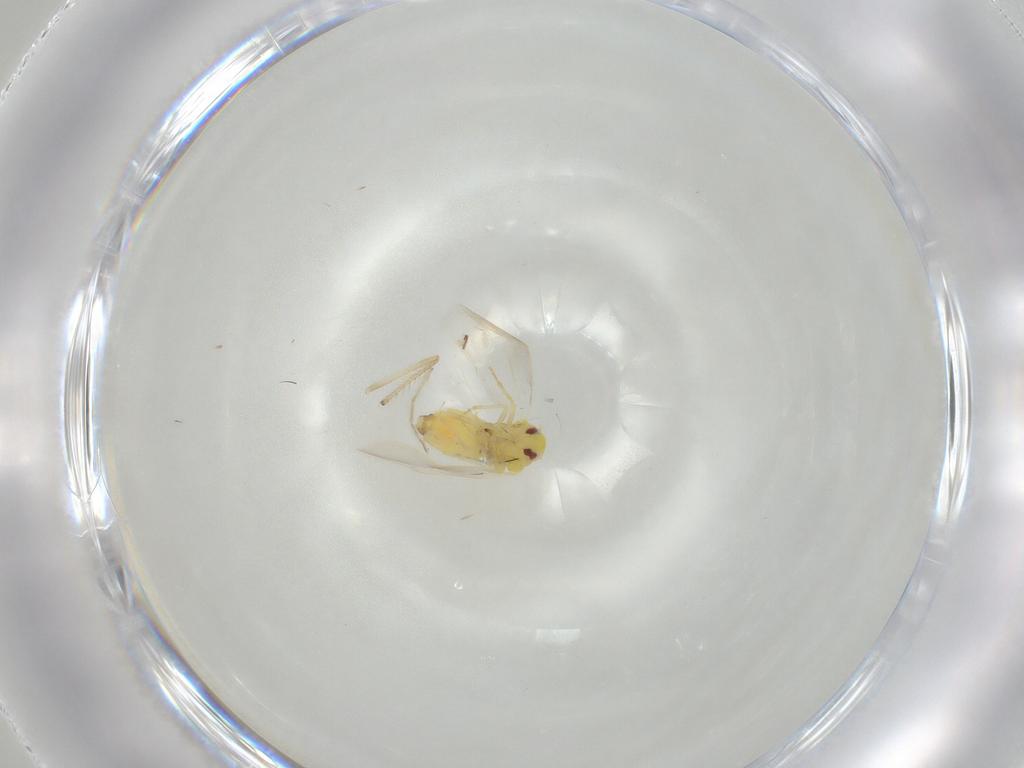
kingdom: Animalia
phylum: Arthropoda
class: Insecta
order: Hemiptera
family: Aleyrodidae
